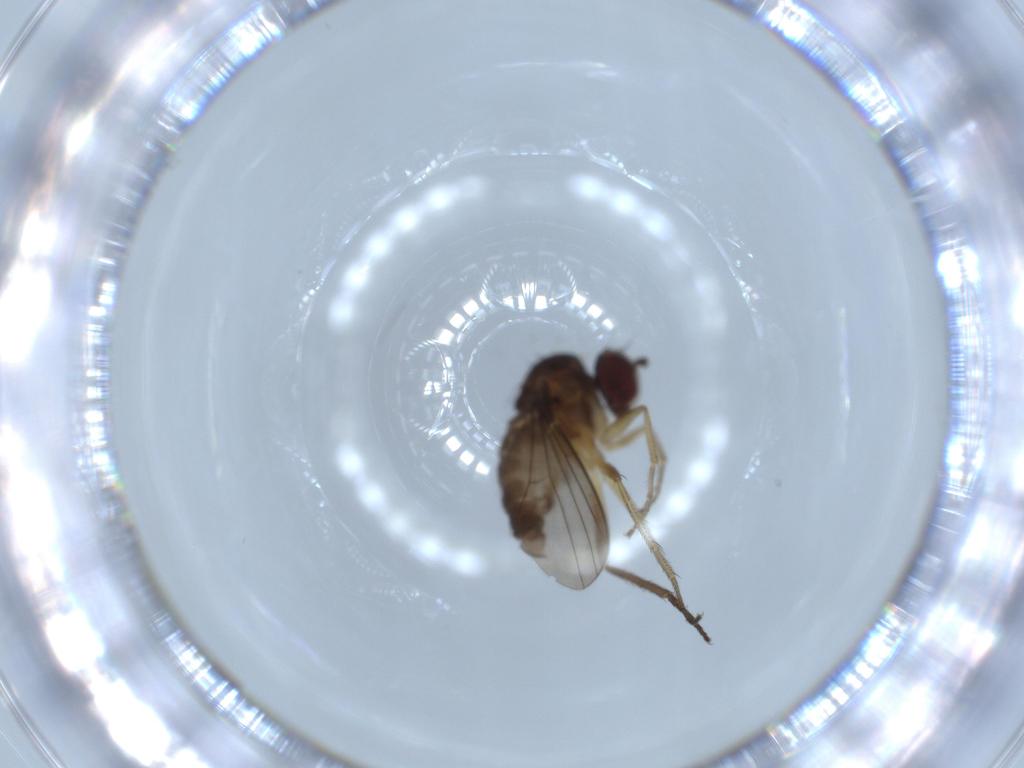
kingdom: Animalia
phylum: Arthropoda
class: Insecta
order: Diptera
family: Dolichopodidae
